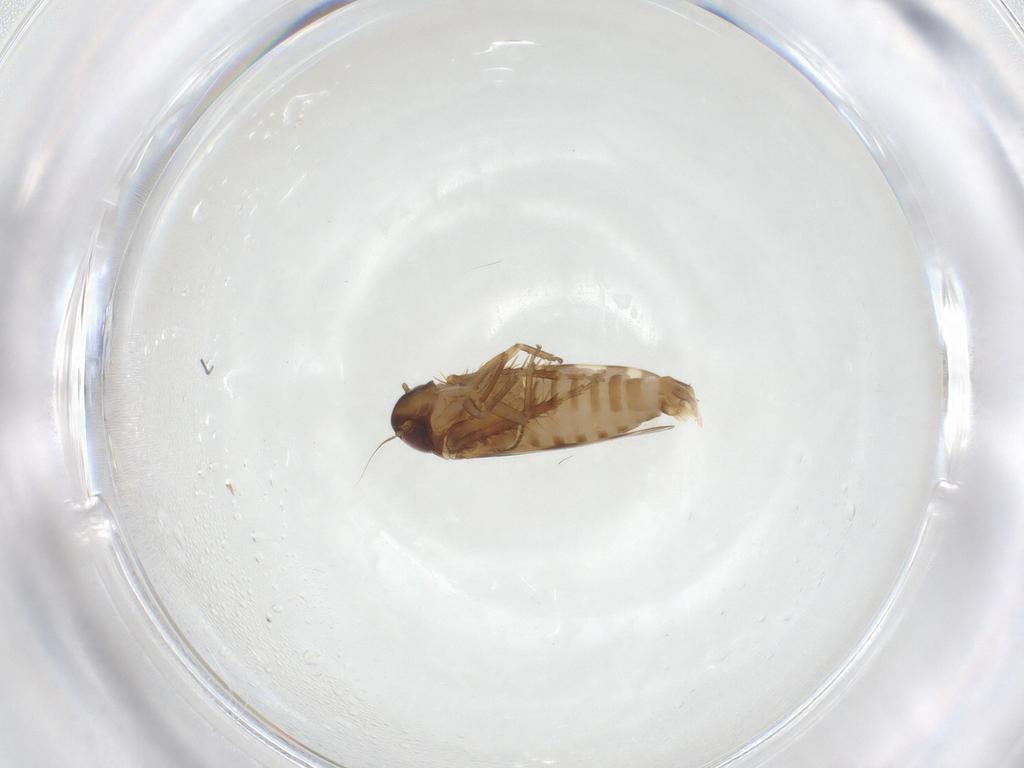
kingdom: Animalia
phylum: Arthropoda
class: Insecta
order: Hemiptera
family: Cicadellidae
